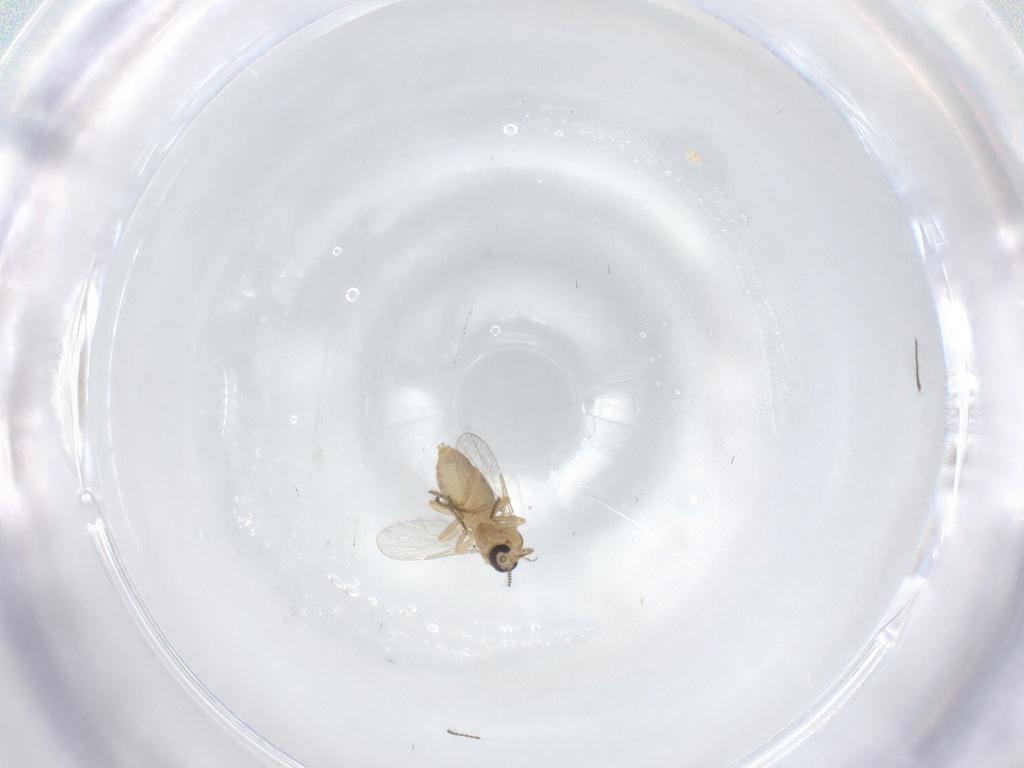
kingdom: Animalia
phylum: Arthropoda
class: Insecta
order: Diptera
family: Ceratopogonidae
